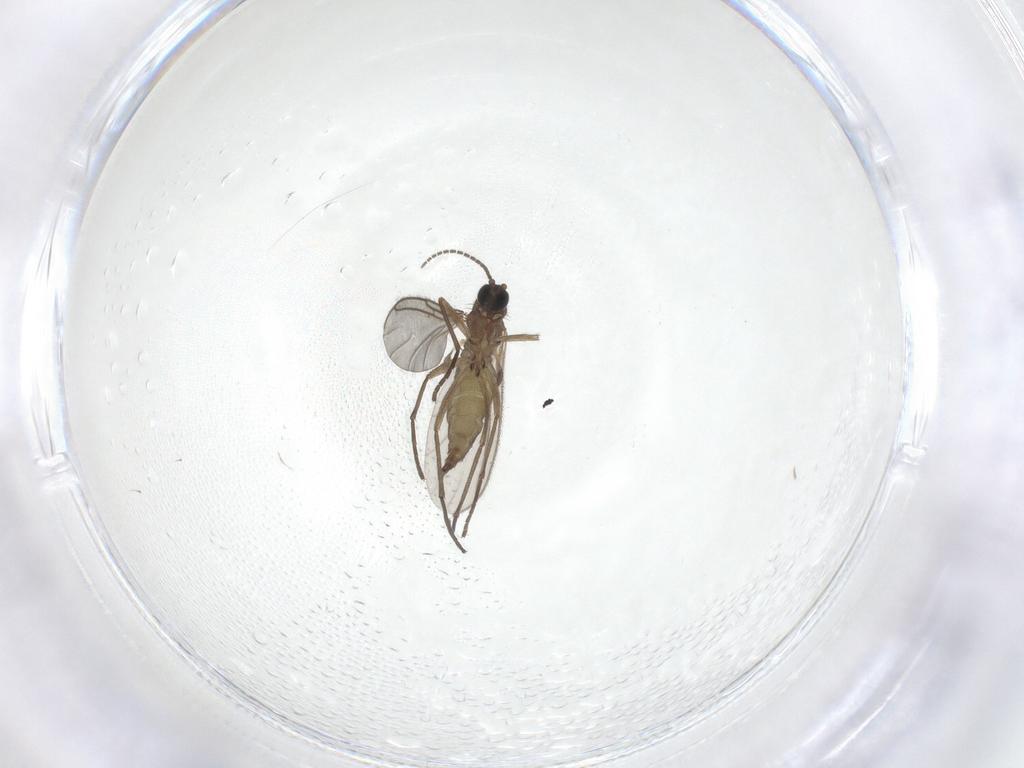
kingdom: Animalia
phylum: Arthropoda
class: Insecta
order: Diptera
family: Sciaridae
